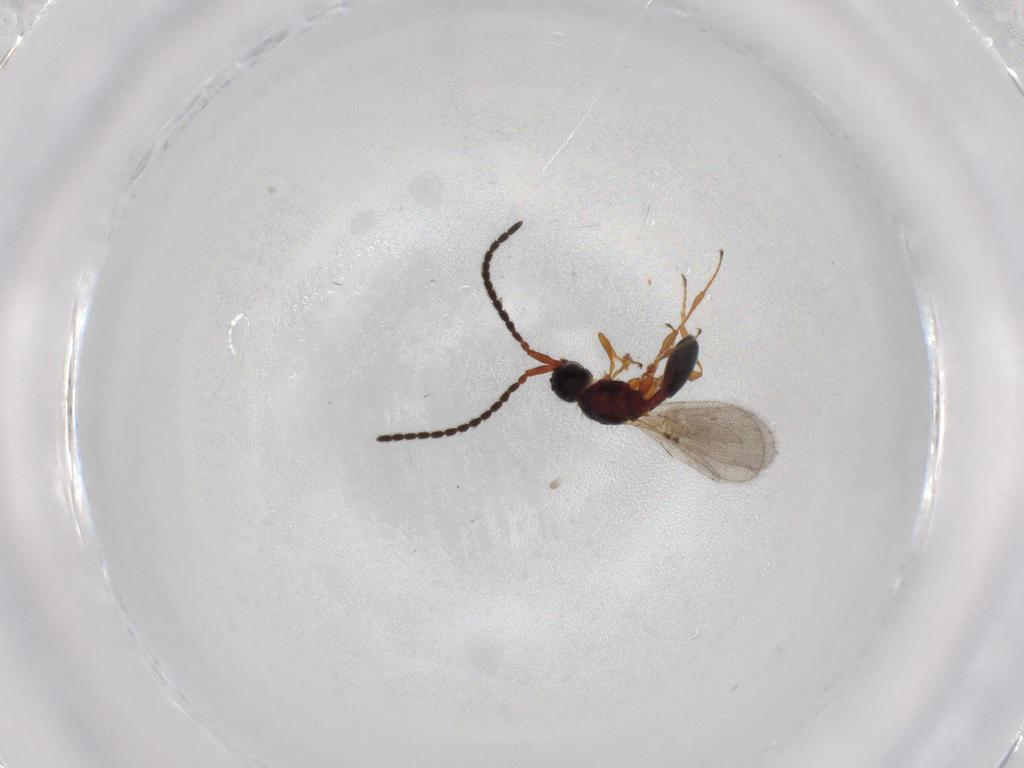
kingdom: Animalia
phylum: Arthropoda
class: Insecta
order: Hymenoptera
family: Diapriidae
